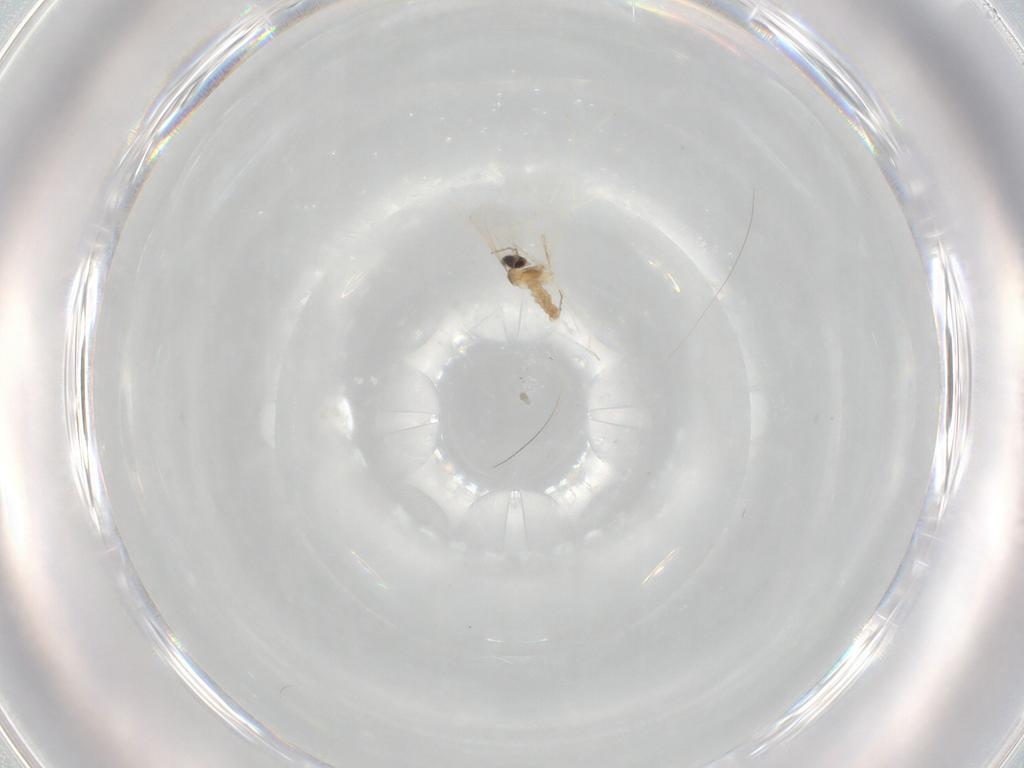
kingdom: Animalia
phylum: Arthropoda
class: Insecta
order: Diptera
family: Cecidomyiidae
